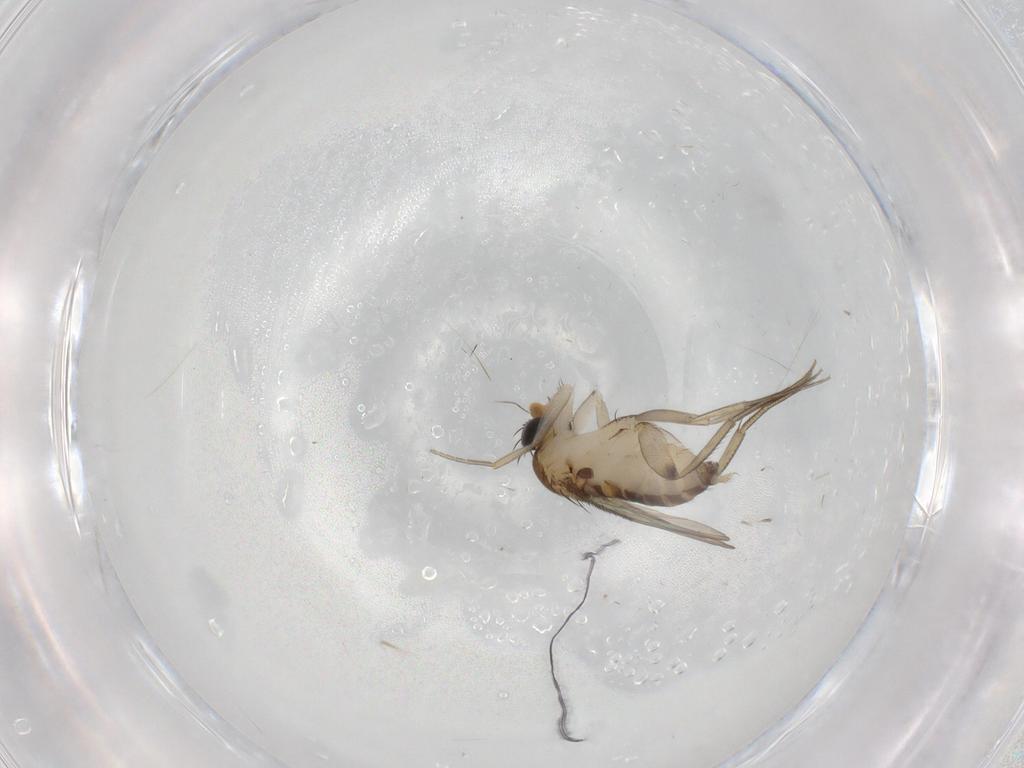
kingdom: Animalia
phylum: Arthropoda
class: Insecta
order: Diptera
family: Phoridae
